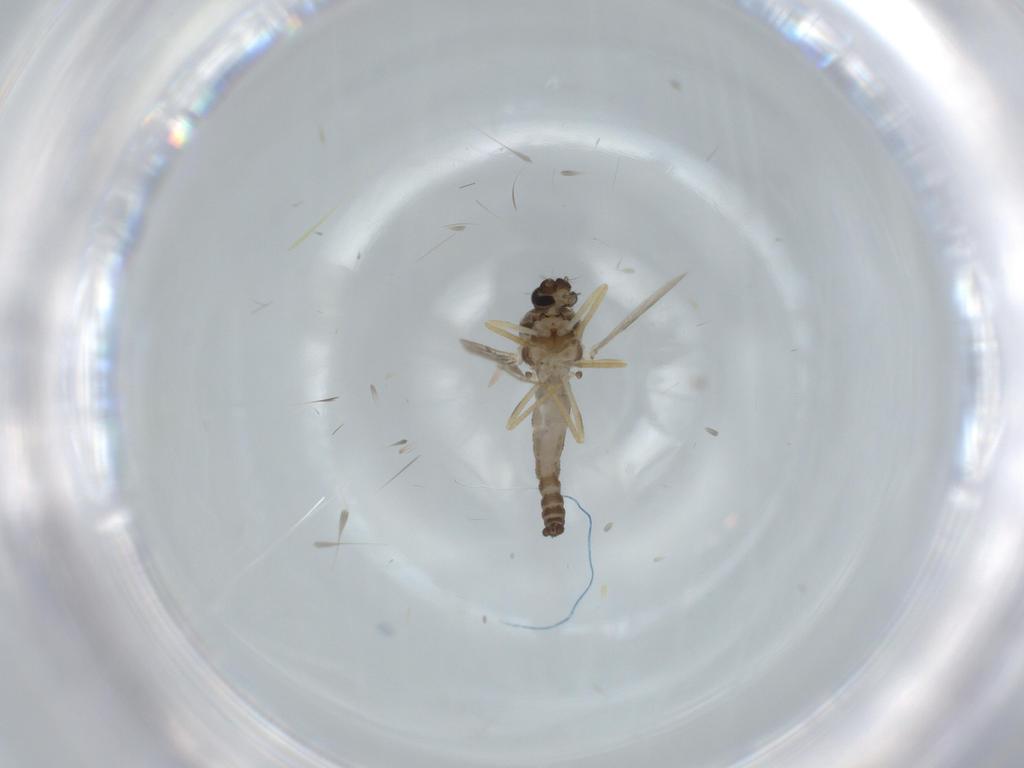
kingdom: Animalia
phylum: Arthropoda
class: Insecta
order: Diptera
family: Ceratopogonidae
